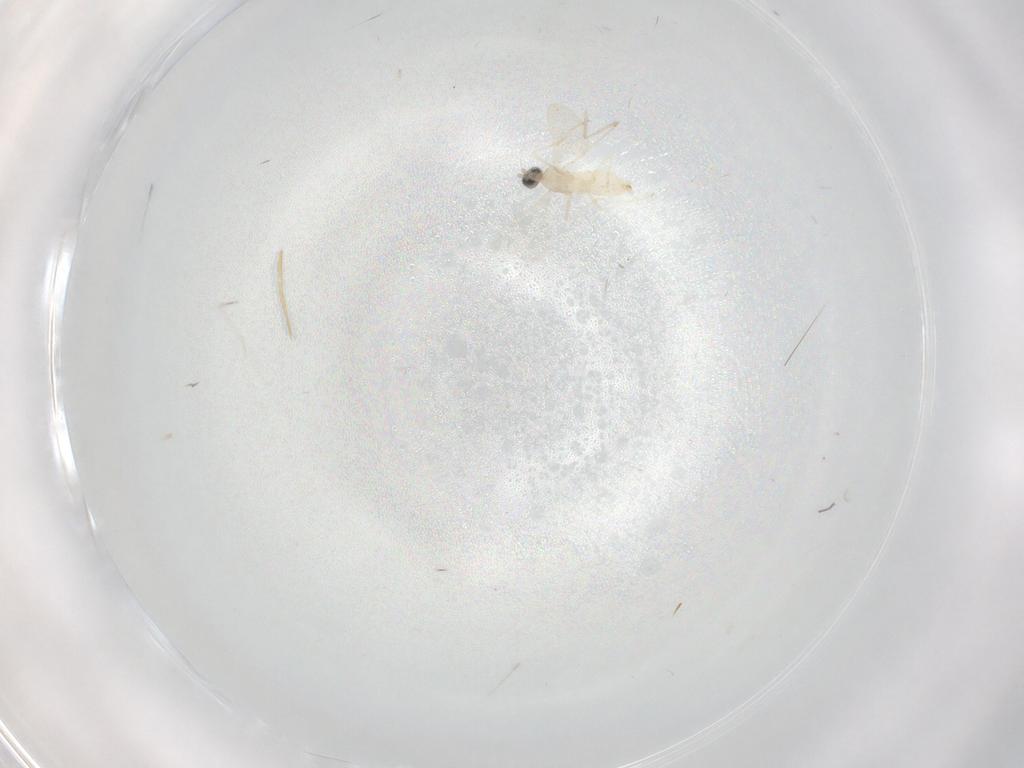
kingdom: Animalia
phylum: Arthropoda
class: Insecta
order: Diptera
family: Cecidomyiidae
